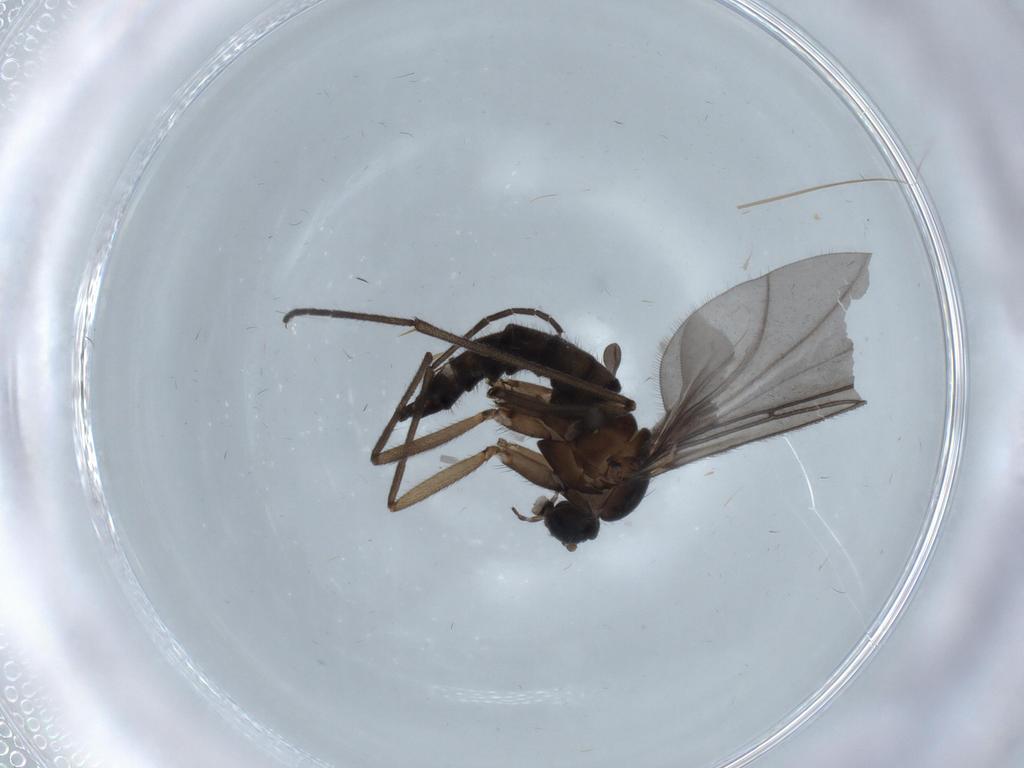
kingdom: Animalia
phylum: Arthropoda
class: Insecta
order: Diptera
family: Sciaridae
